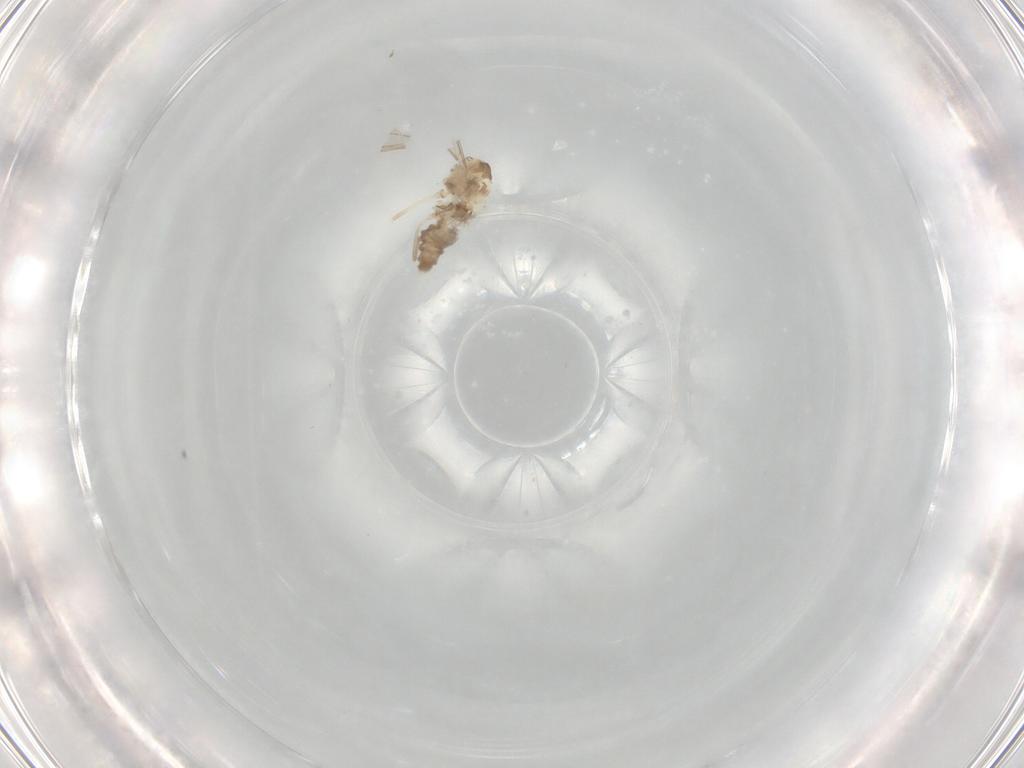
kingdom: Animalia
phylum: Arthropoda
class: Insecta
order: Diptera
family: Cecidomyiidae
